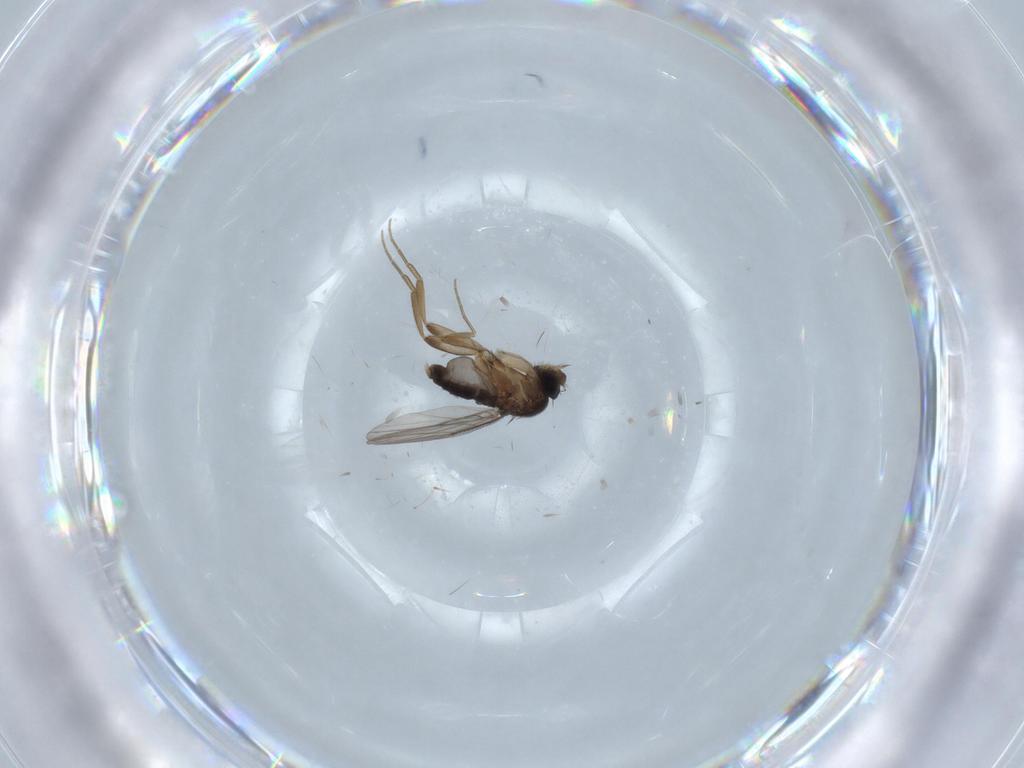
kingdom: Animalia
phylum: Arthropoda
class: Insecta
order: Diptera
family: Phoridae
